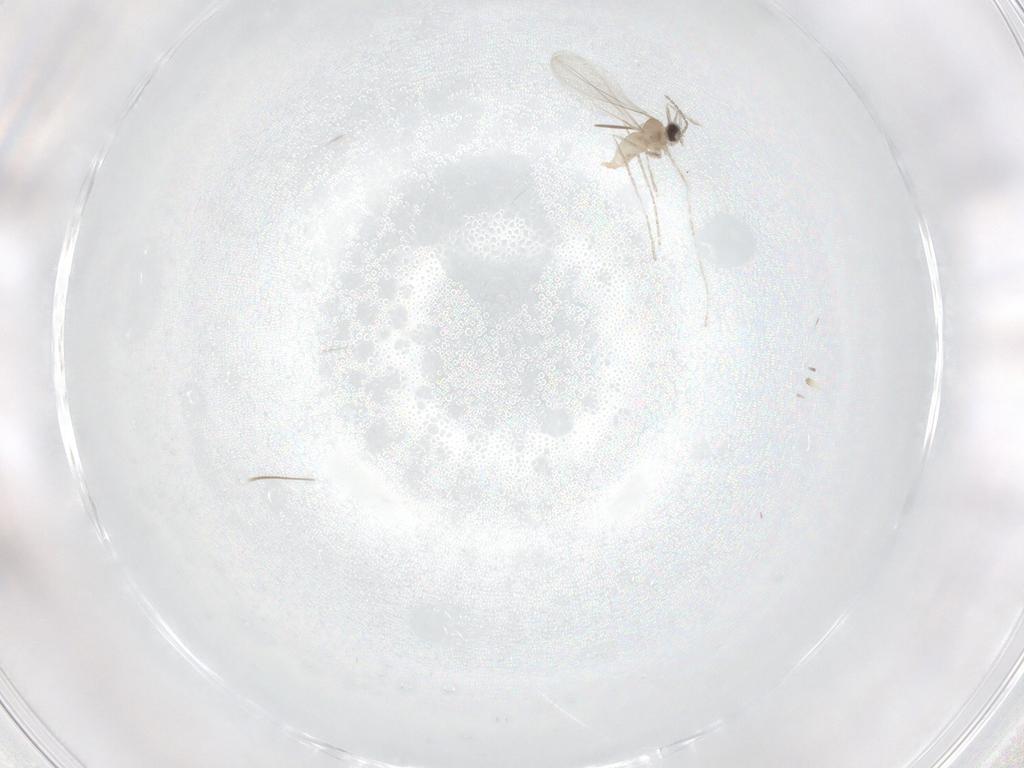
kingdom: Animalia
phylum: Arthropoda
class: Insecta
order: Diptera
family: Cecidomyiidae
